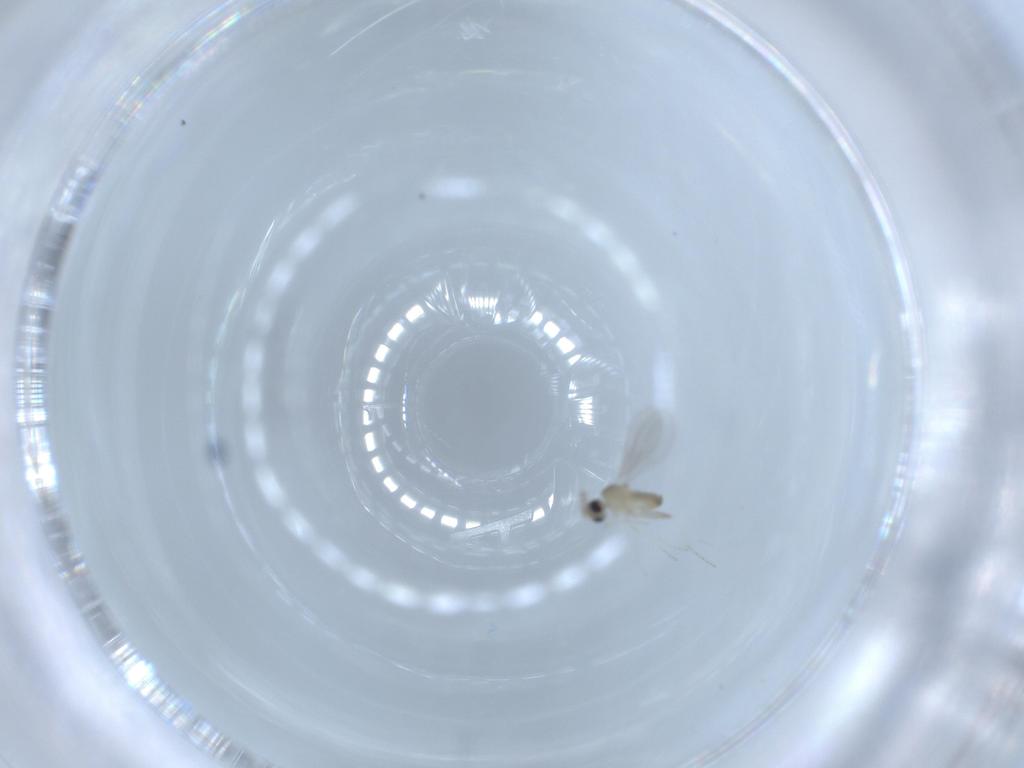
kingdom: Animalia
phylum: Arthropoda
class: Insecta
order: Diptera
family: Cecidomyiidae
